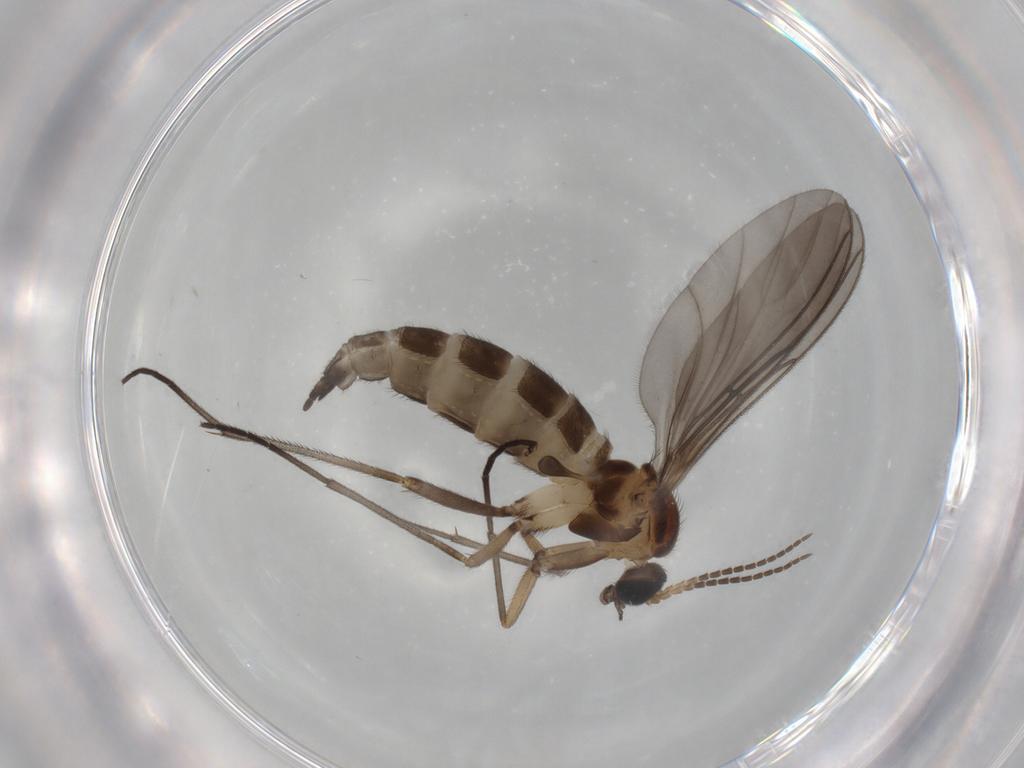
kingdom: Animalia
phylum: Arthropoda
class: Insecta
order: Diptera
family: Sciaridae
